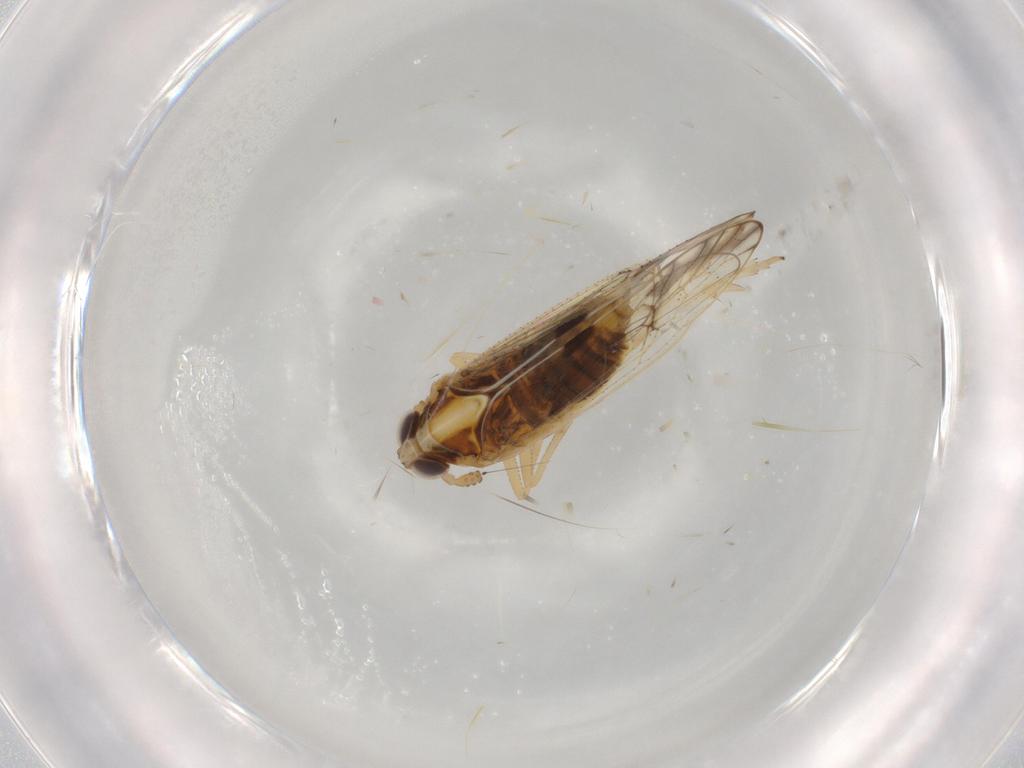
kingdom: Animalia
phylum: Arthropoda
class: Insecta
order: Hemiptera
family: Delphacidae
